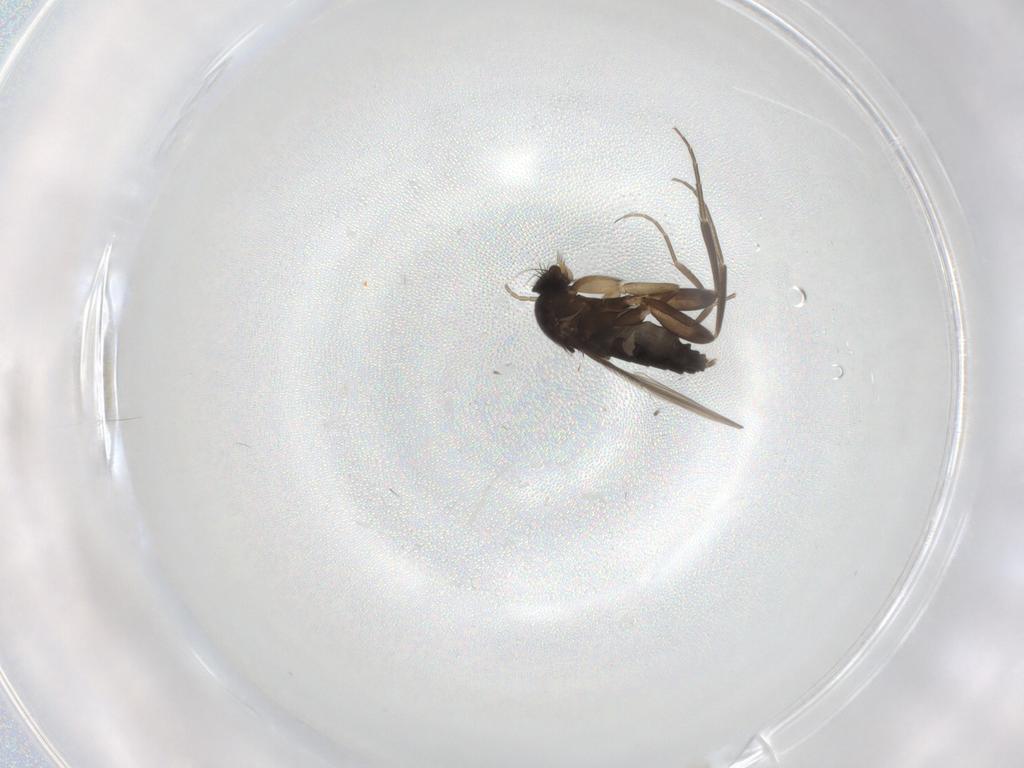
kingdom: Animalia
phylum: Arthropoda
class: Insecta
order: Diptera
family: Phoridae
